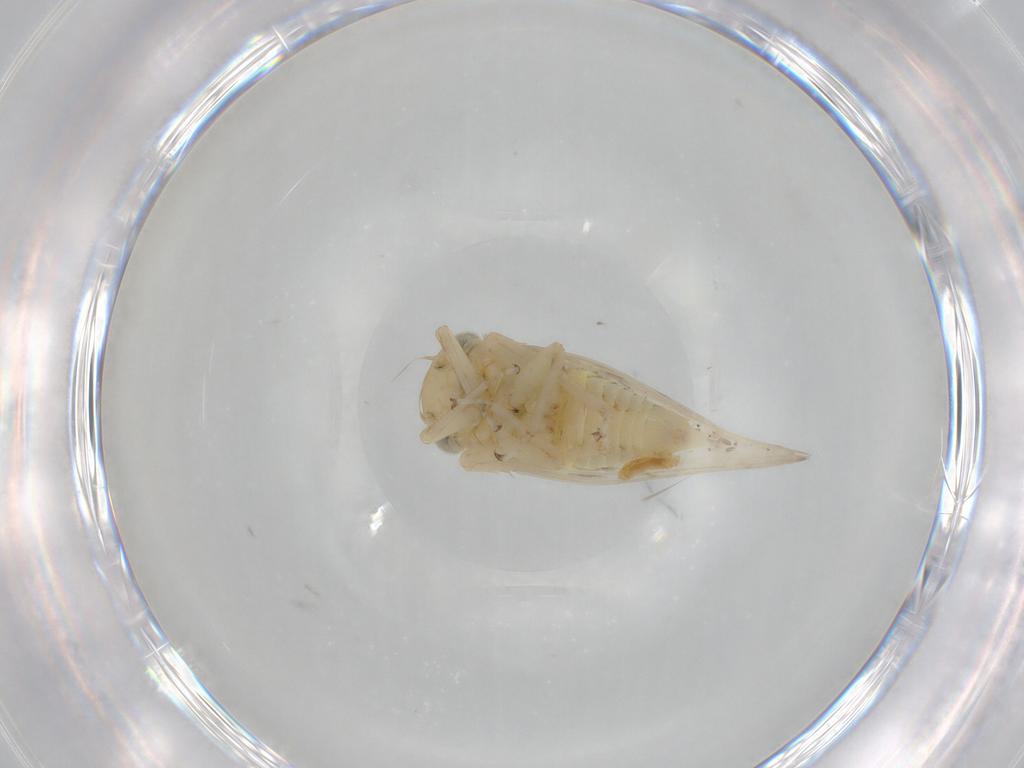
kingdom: Animalia
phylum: Arthropoda
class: Insecta
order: Hemiptera
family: Cicadellidae
